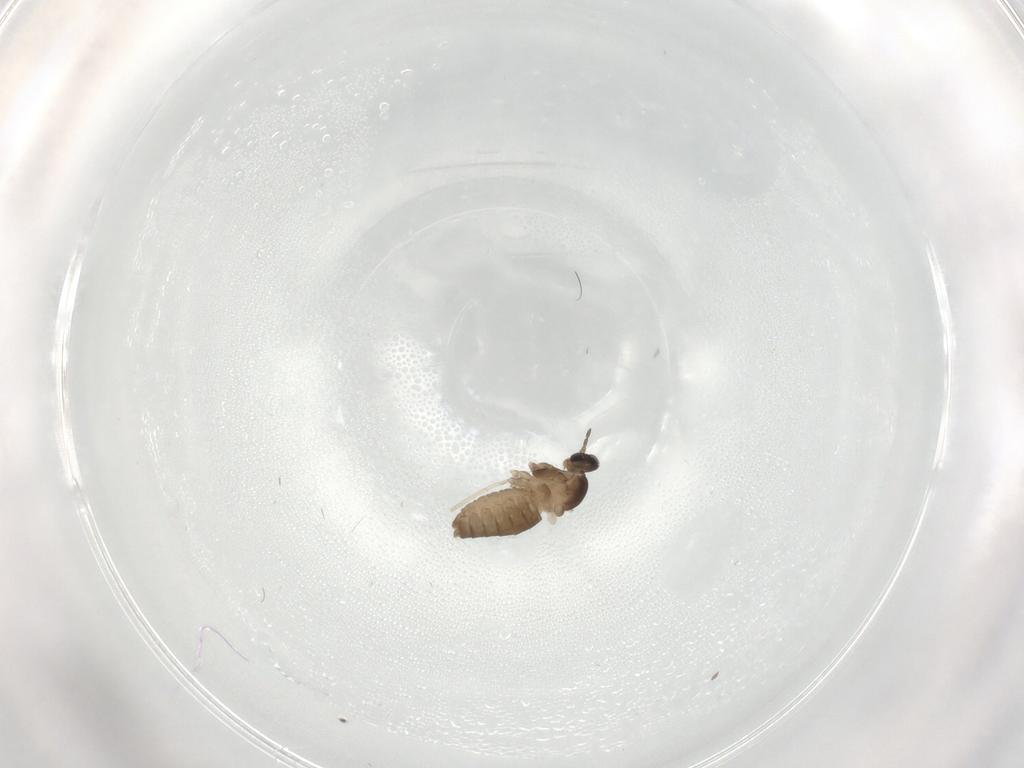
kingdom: Animalia
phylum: Arthropoda
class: Insecta
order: Diptera
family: Cecidomyiidae
